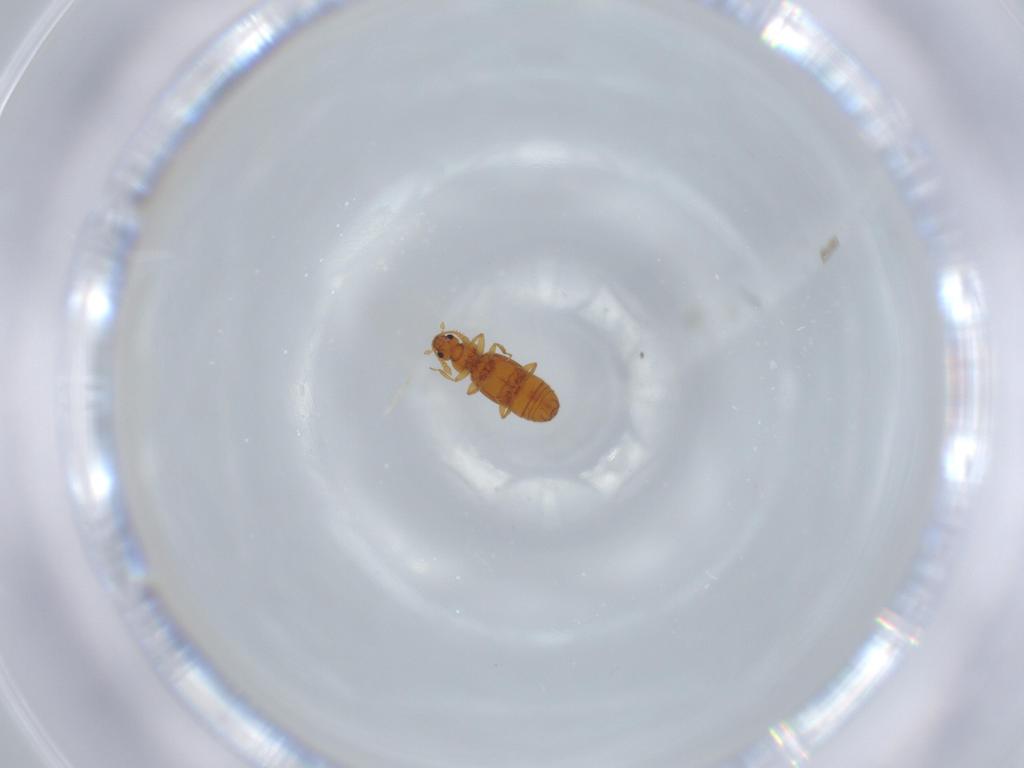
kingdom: Animalia
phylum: Arthropoda
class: Insecta
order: Coleoptera
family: Staphylinidae
